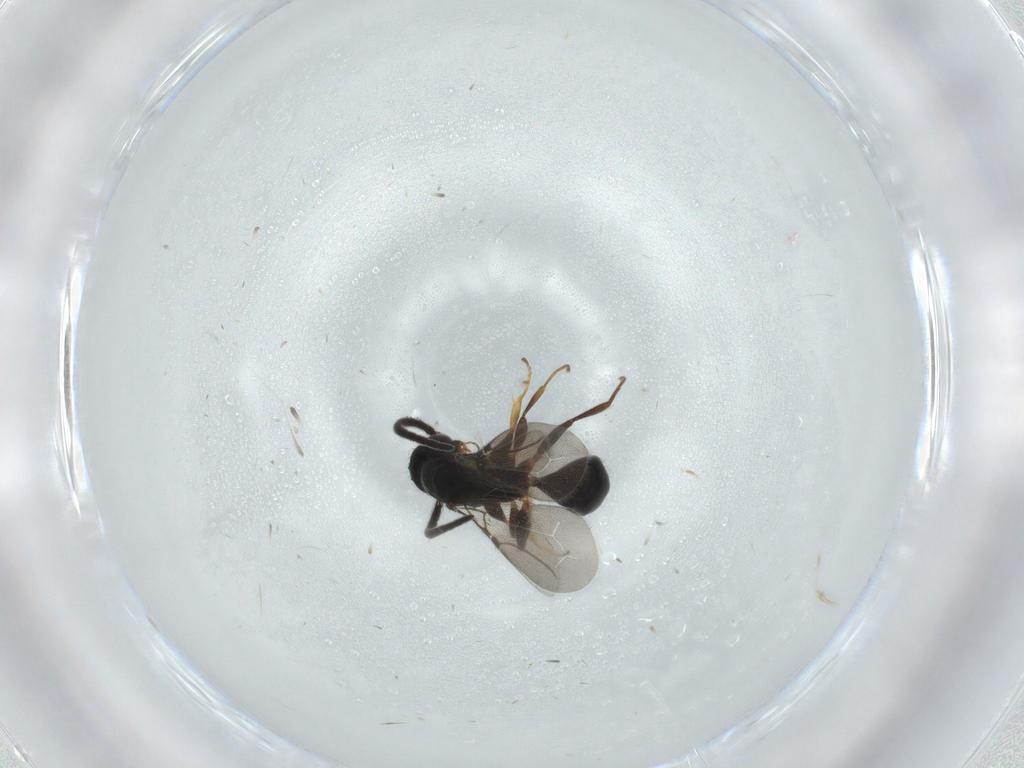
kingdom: Animalia
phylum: Arthropoda
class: Insecta
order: Hymenoptera
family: Bethylidae
